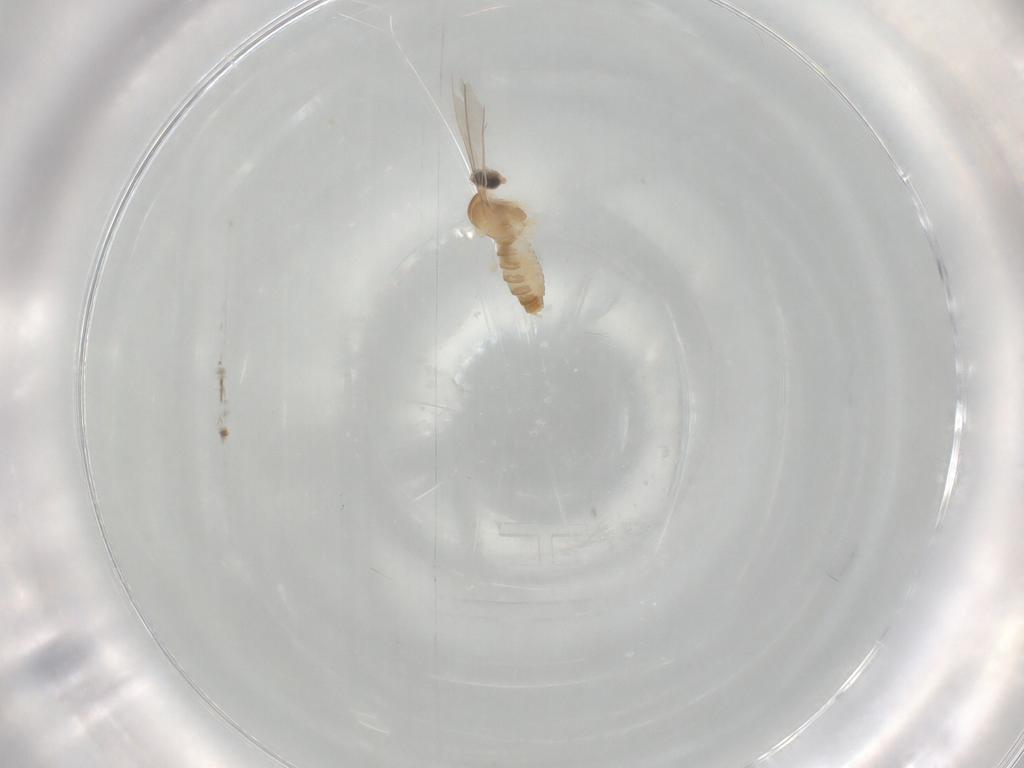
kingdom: Animalia
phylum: Arthropoda
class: Insecta
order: Diptera
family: Cecidomyiidae
